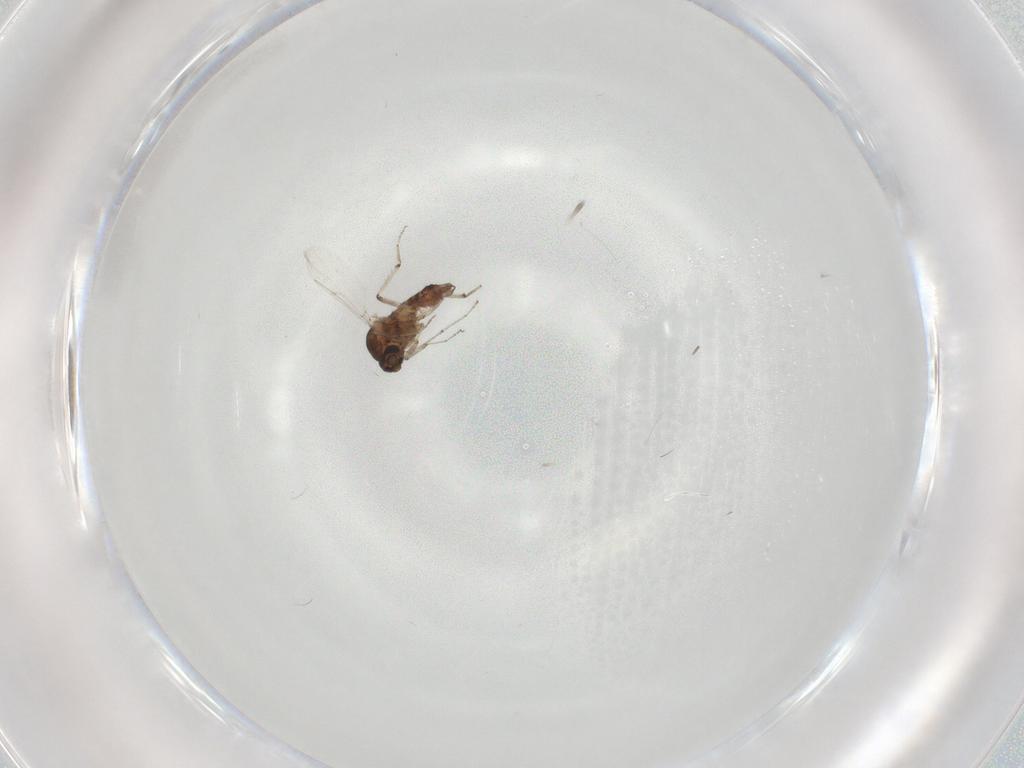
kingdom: Animalia
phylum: Arthropoda
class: Insecta
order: Diptera
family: Ceratopogonidae
